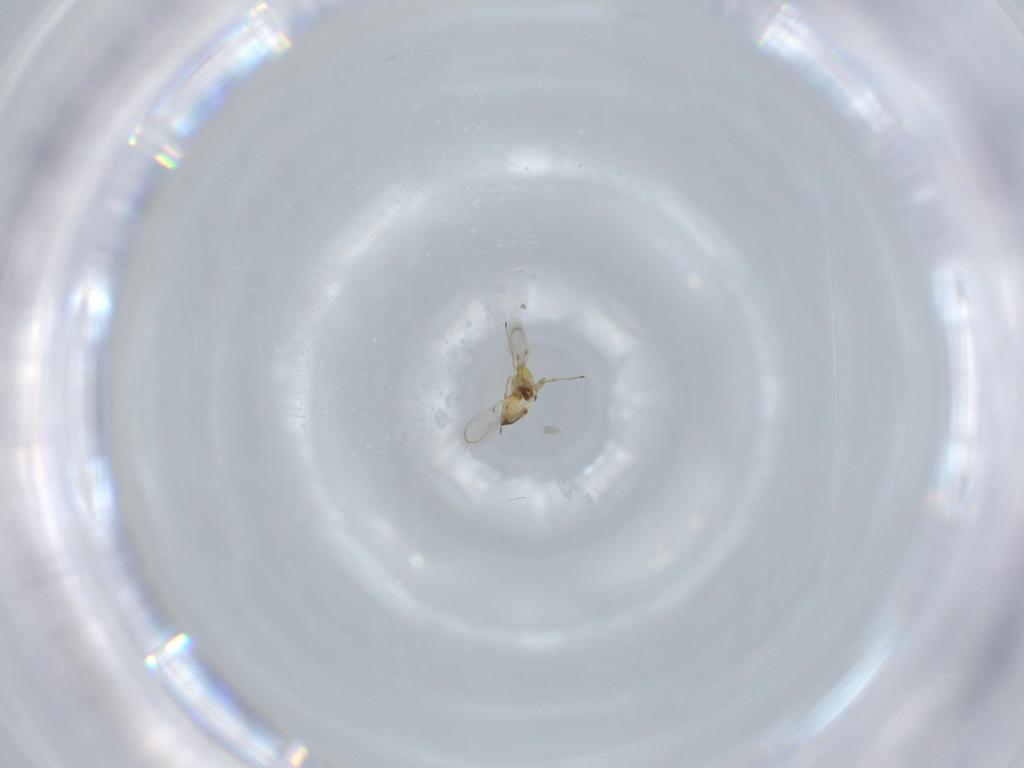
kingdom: Animalia
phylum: Arthropoda
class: Insecta
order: Hymenoptera
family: Trichogrammatidae
